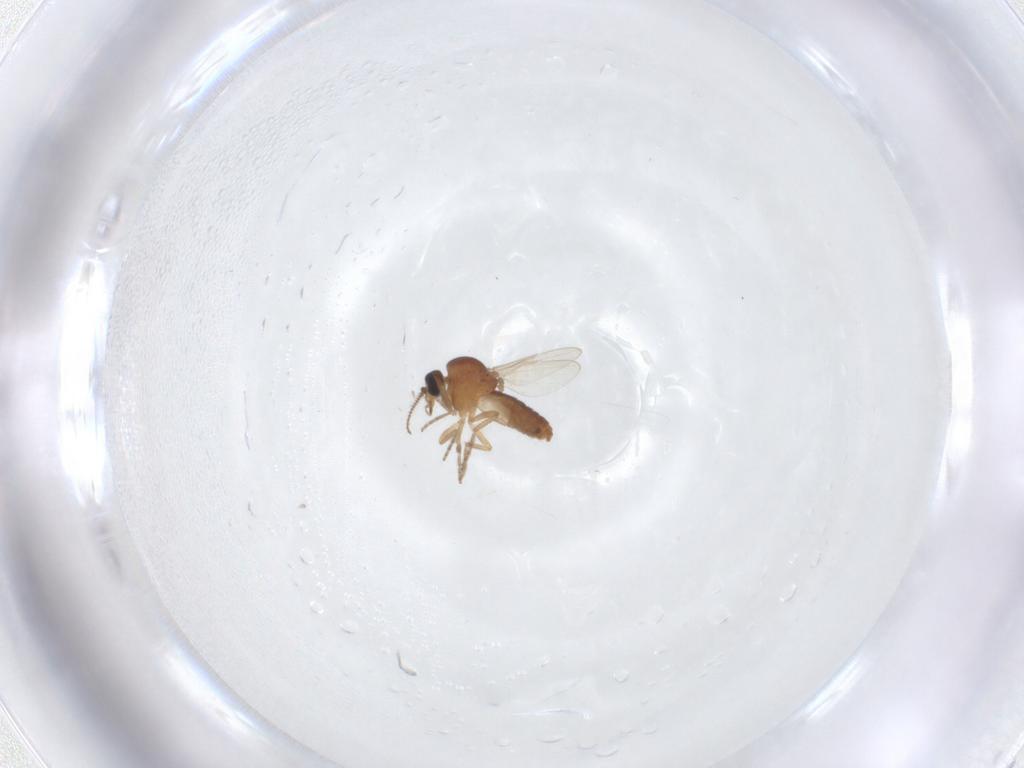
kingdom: Animalia
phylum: Arthropoda
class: Insecta
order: Diptera
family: Ceratopogonidae
